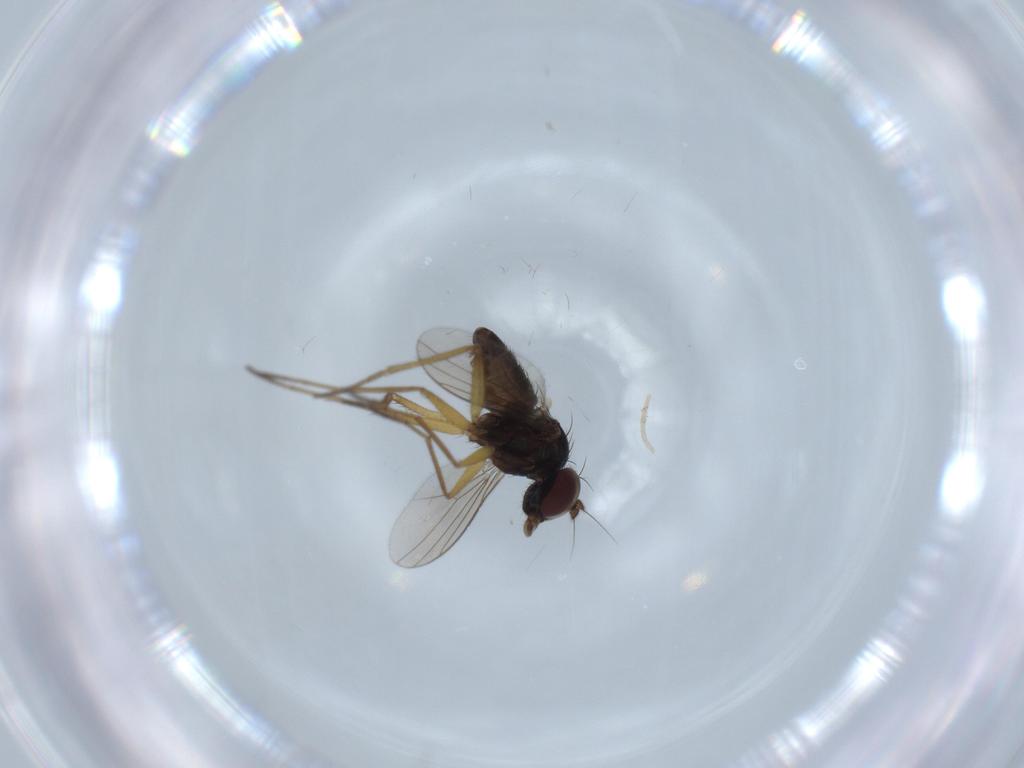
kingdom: Animalia
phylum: Arthropoda
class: Insecta
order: Diptera
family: Dolichopodidae
